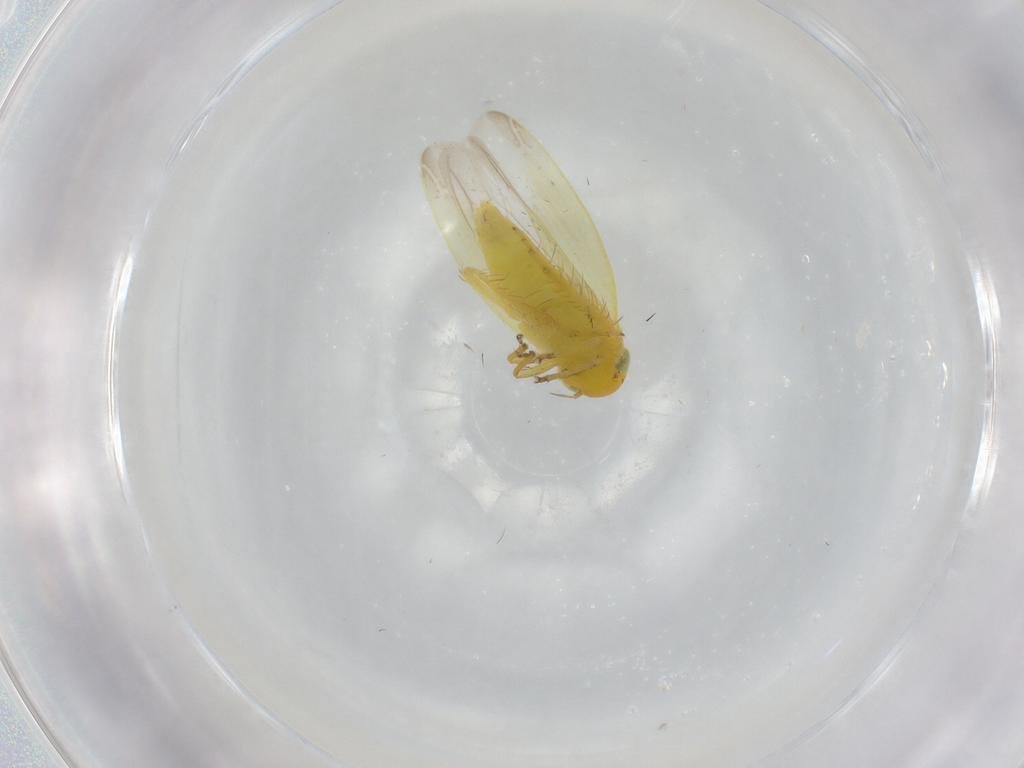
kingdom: Animalia
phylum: Arthropoda
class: Insecta
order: Hemiptera
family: Cicadellidae
